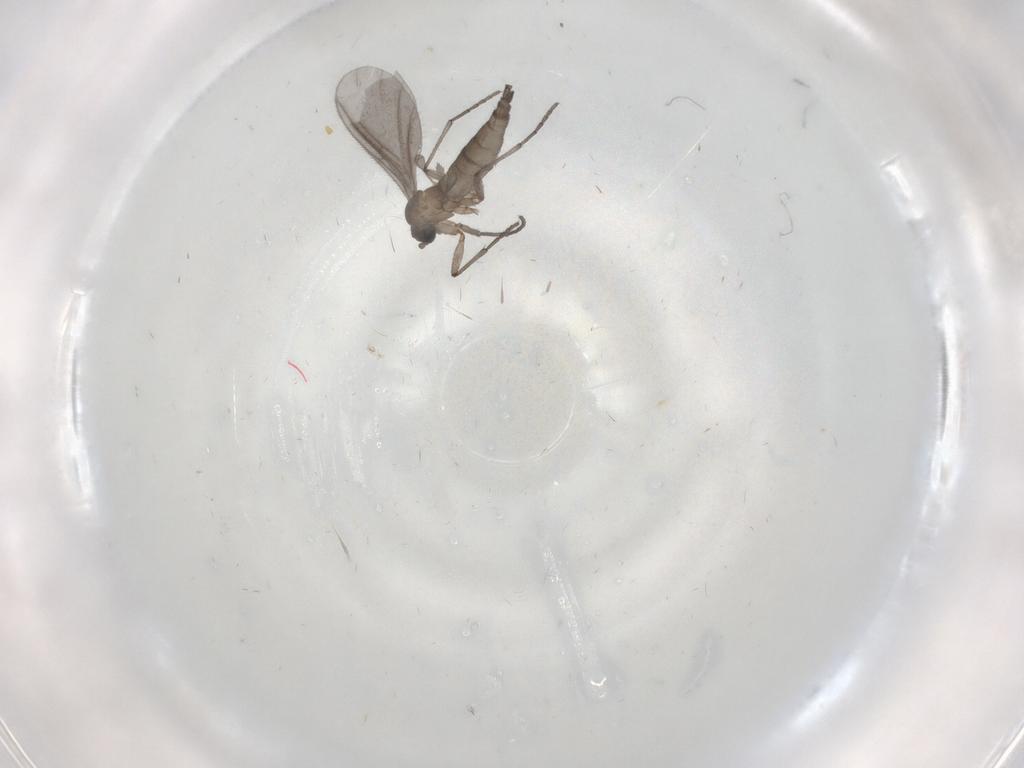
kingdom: Animalia
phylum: Arthropoda
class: Insecta
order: Diptera
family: Sciaridae
